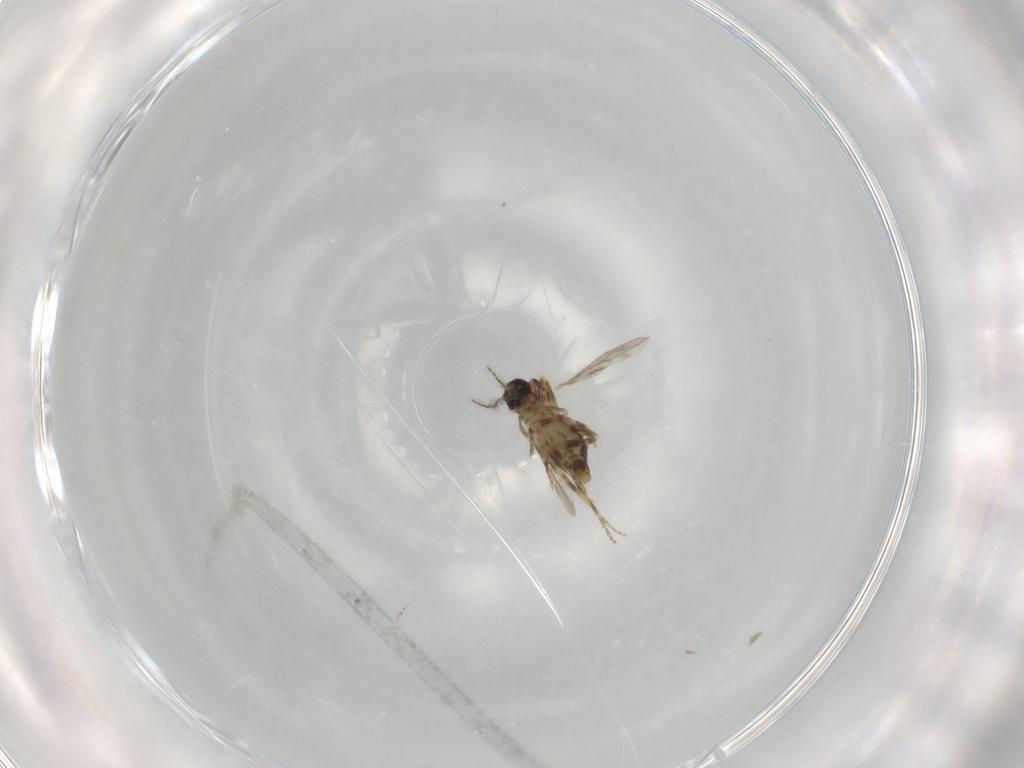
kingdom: Animalia
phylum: Arthropoda
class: Insecta
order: Diptera
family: Ceratopogonidae
